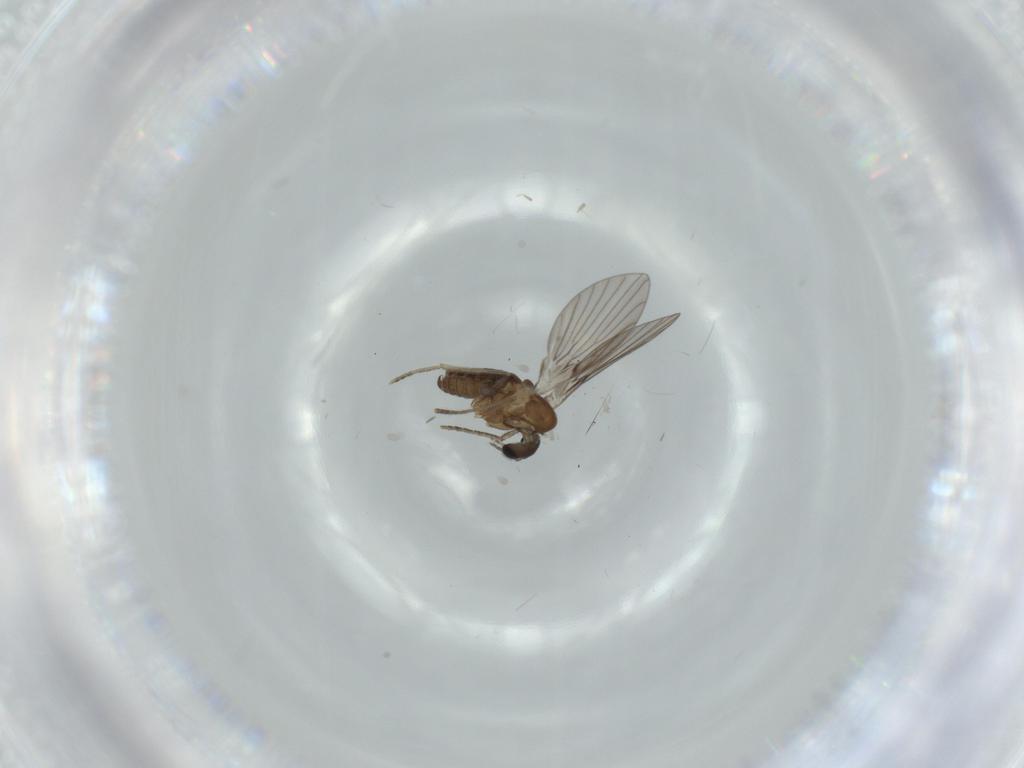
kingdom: Animalia
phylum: Arthropoda
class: Insecta
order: Diptera
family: Psychodidae
